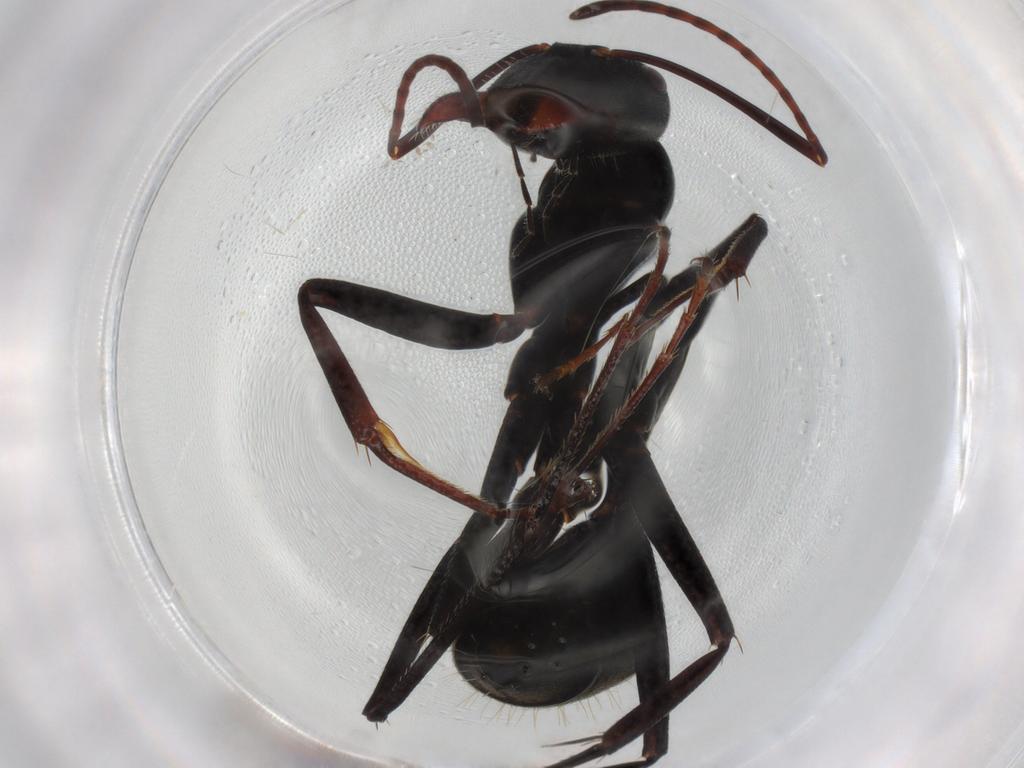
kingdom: Animalia
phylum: Arthropoda
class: Insecta
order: Hymenoptera
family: Formicidae
